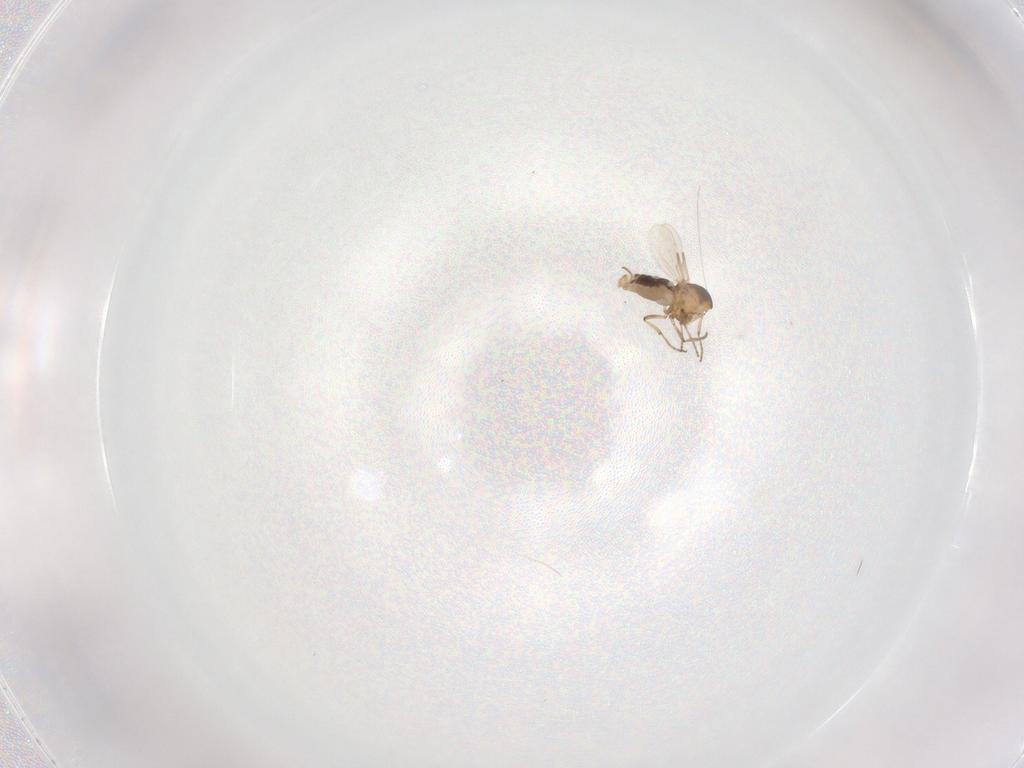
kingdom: Animalia
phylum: Arthropoda
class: Insecta
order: Diptera
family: Ceratopogonidae
